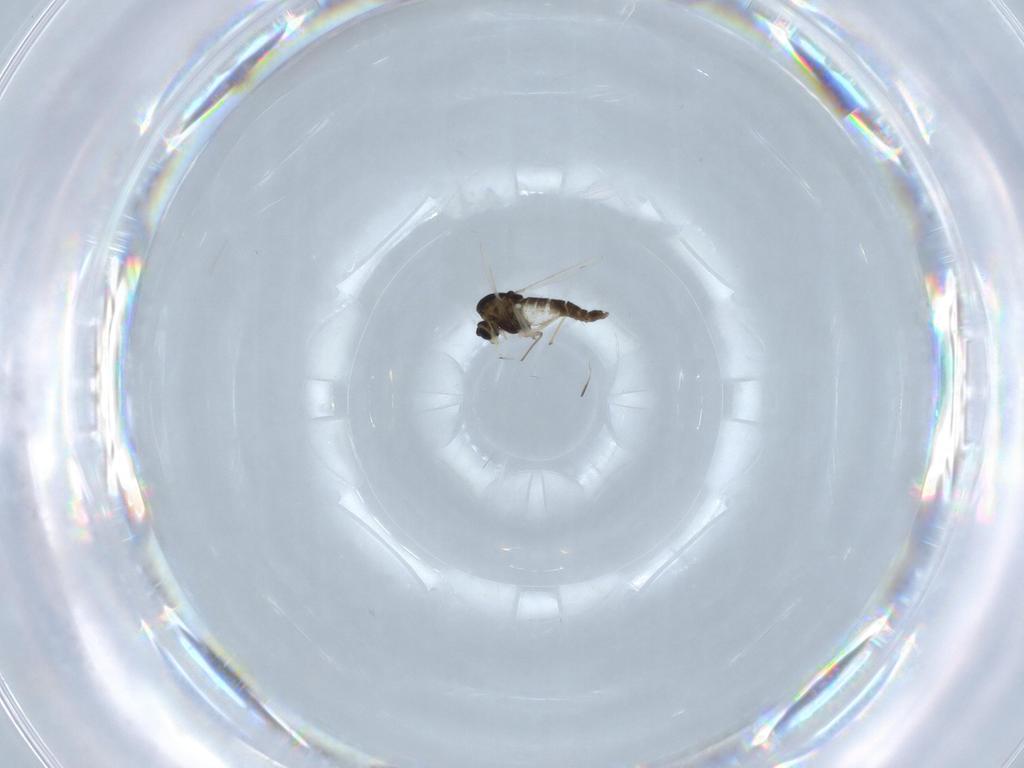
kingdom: Animalia
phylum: Arthropoda
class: Insecta
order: Diptera
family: Chironomidae
